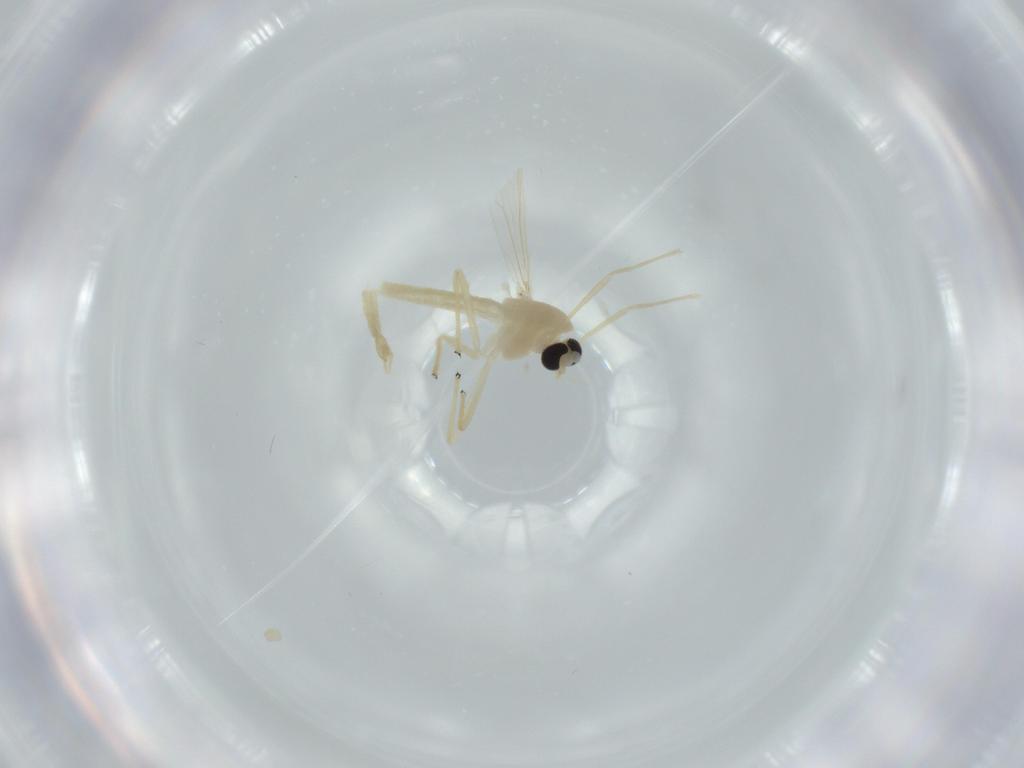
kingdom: Animalia
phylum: Arthropoda
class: Insecta
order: Diptera
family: Chironomidae
